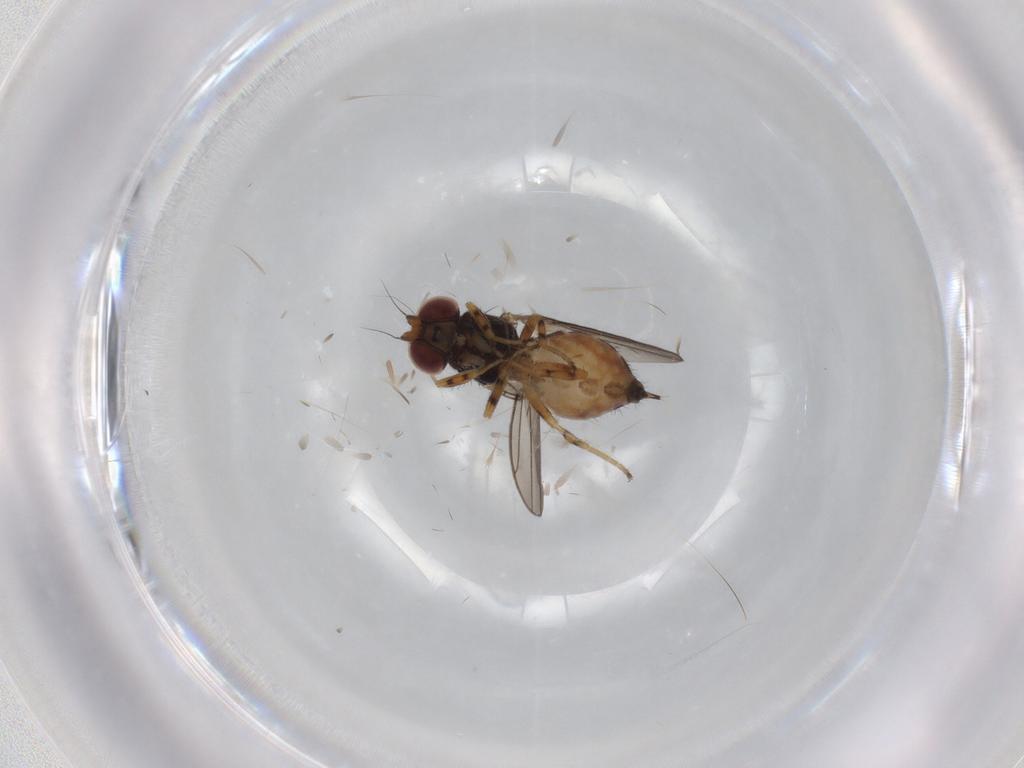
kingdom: Animalia
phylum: Arthropoda
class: Insecta
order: Diptera
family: Chloropidae
